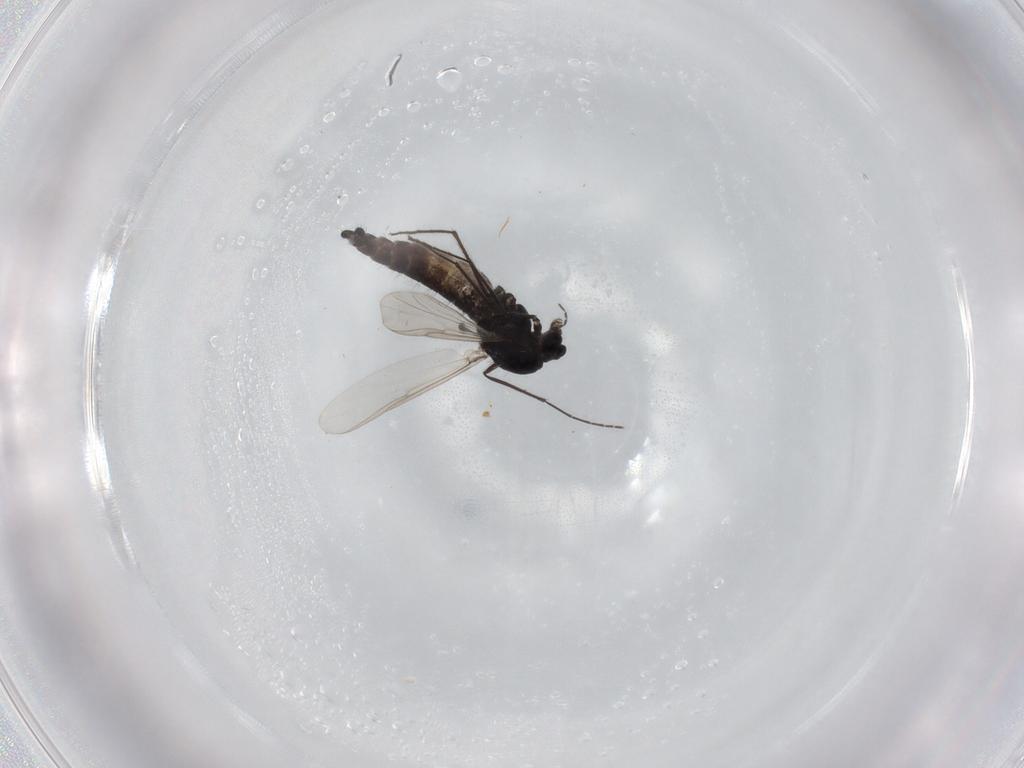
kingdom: Animalia
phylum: Arthropoda
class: Insecta
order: Diptera
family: Chironomidae
